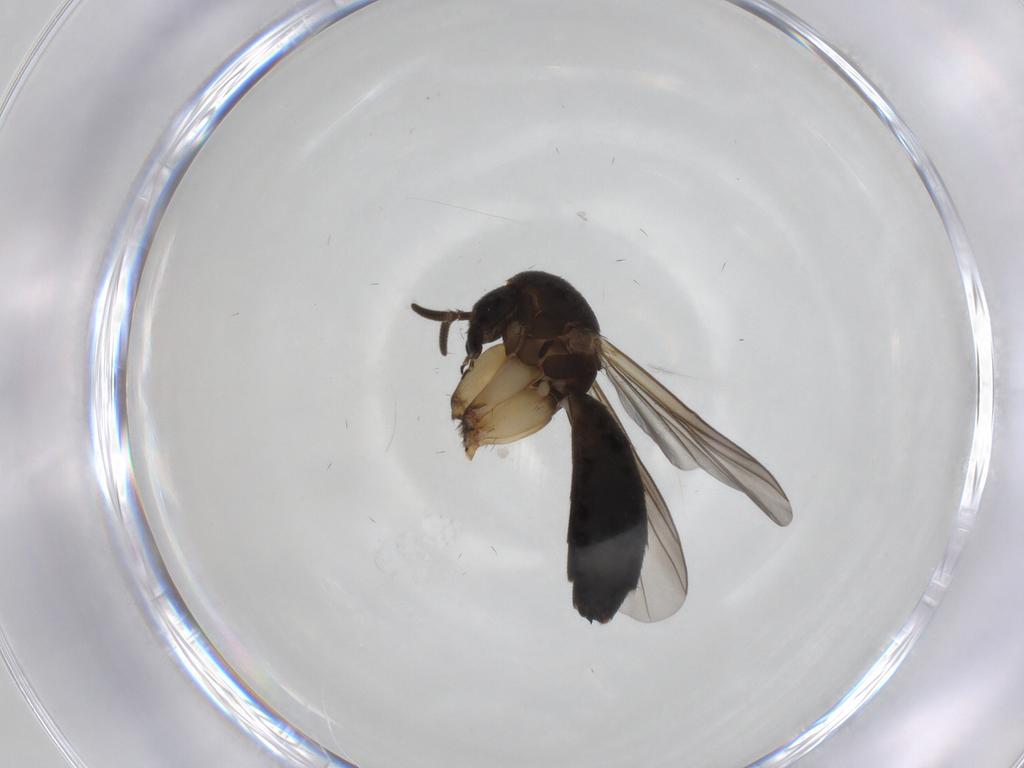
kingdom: Animalia
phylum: Arthropoda
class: Insecta
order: Diptera
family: Mycetophilidae
